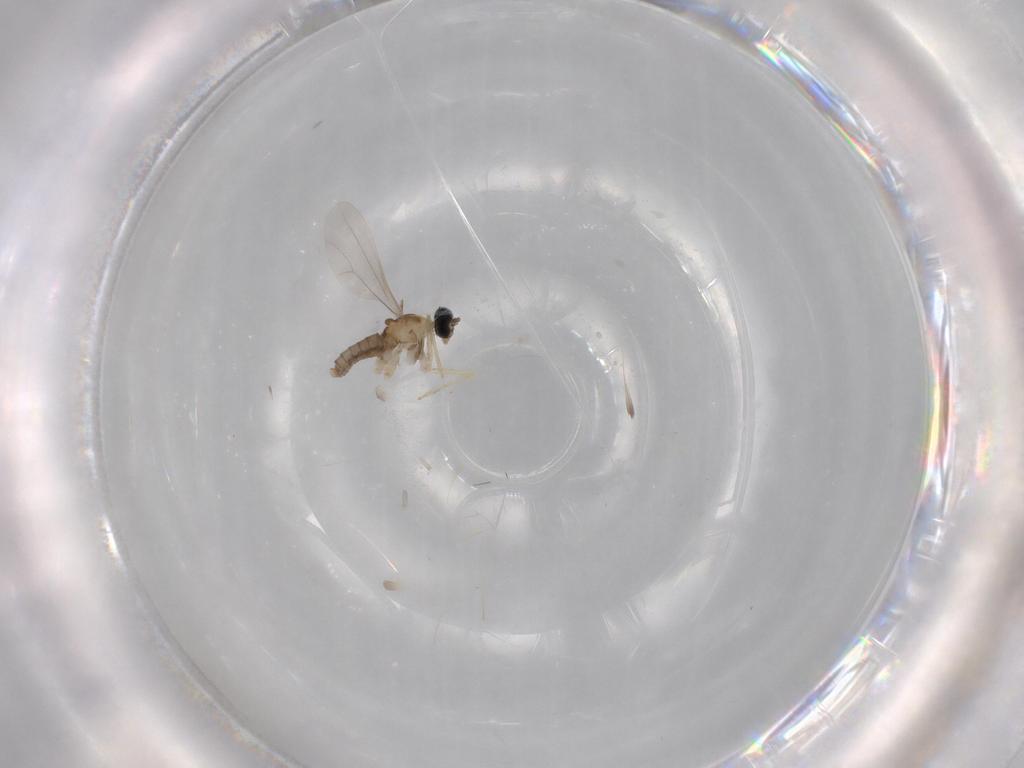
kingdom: Animalia
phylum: Arthropoda
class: Insecta
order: Diptera
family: Cecidomyiidae
